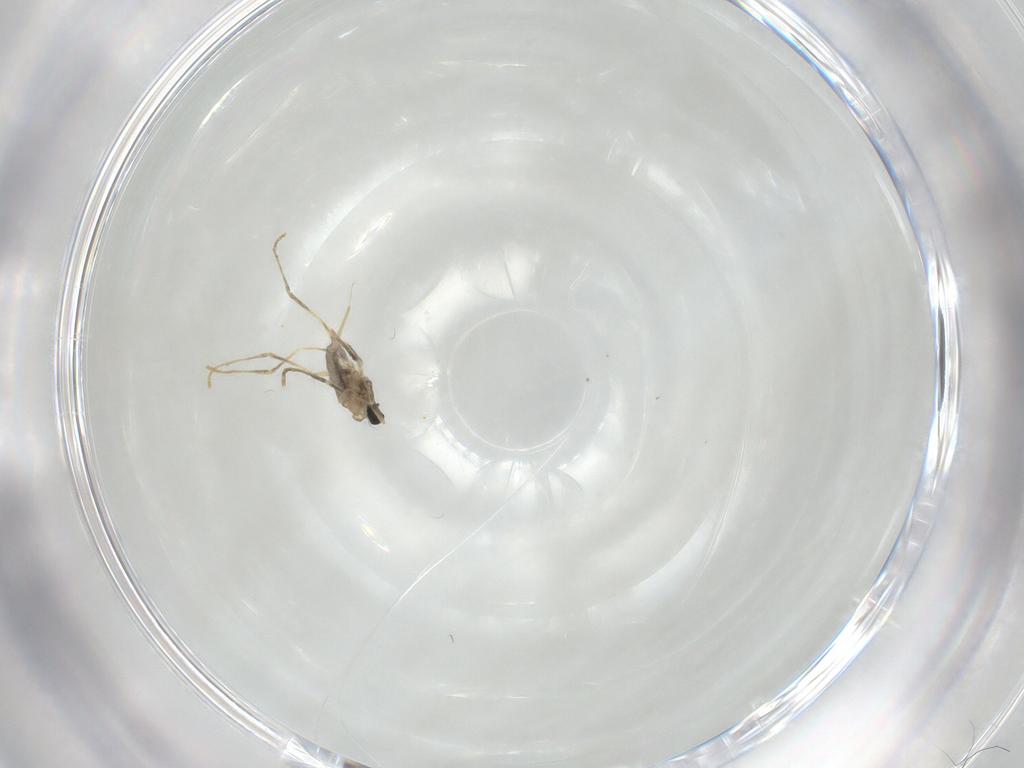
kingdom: Animalia
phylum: Arthropoda
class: Insecta
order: Diptera
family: Cecidomyiidae
